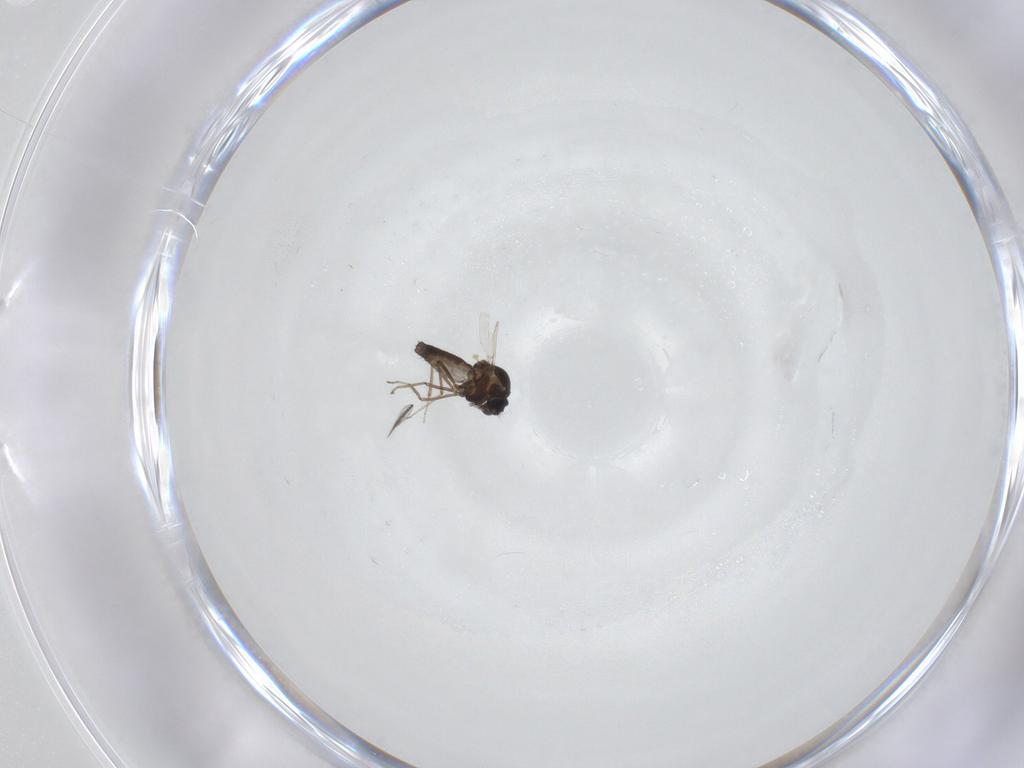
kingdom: Animalia
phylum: Arthropoda
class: Insecta
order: Diptera
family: Ceratopogonidae
